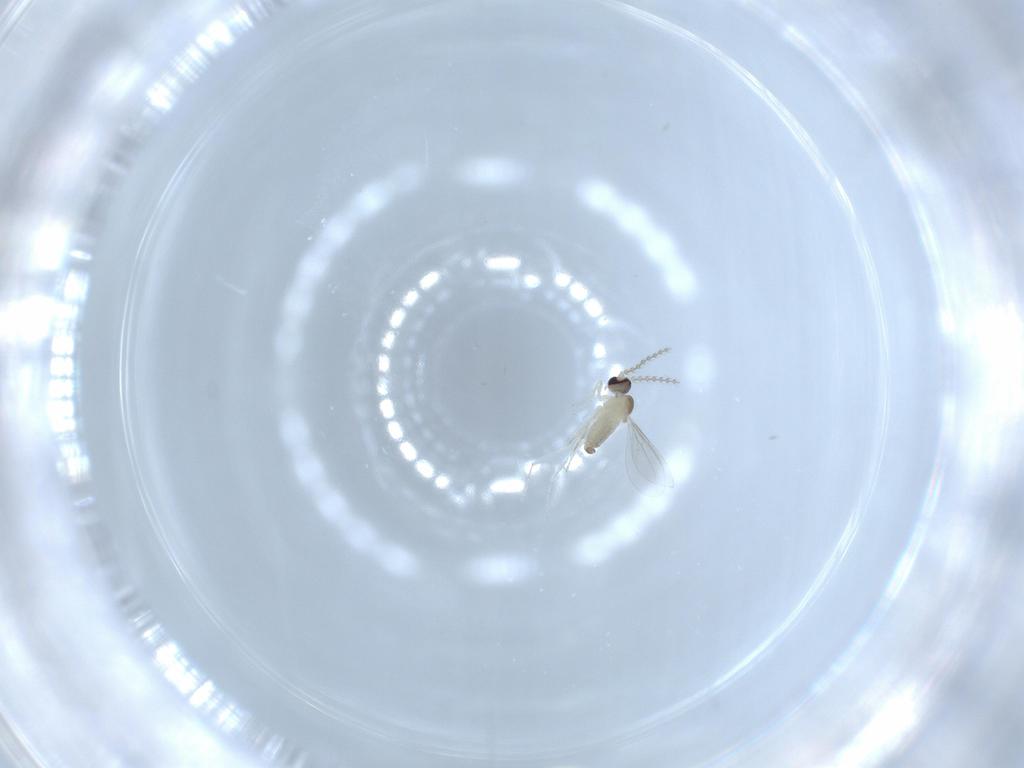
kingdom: Animalia
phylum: Arthropoda
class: Insecta
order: Diptera
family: Cecidomyiidae
